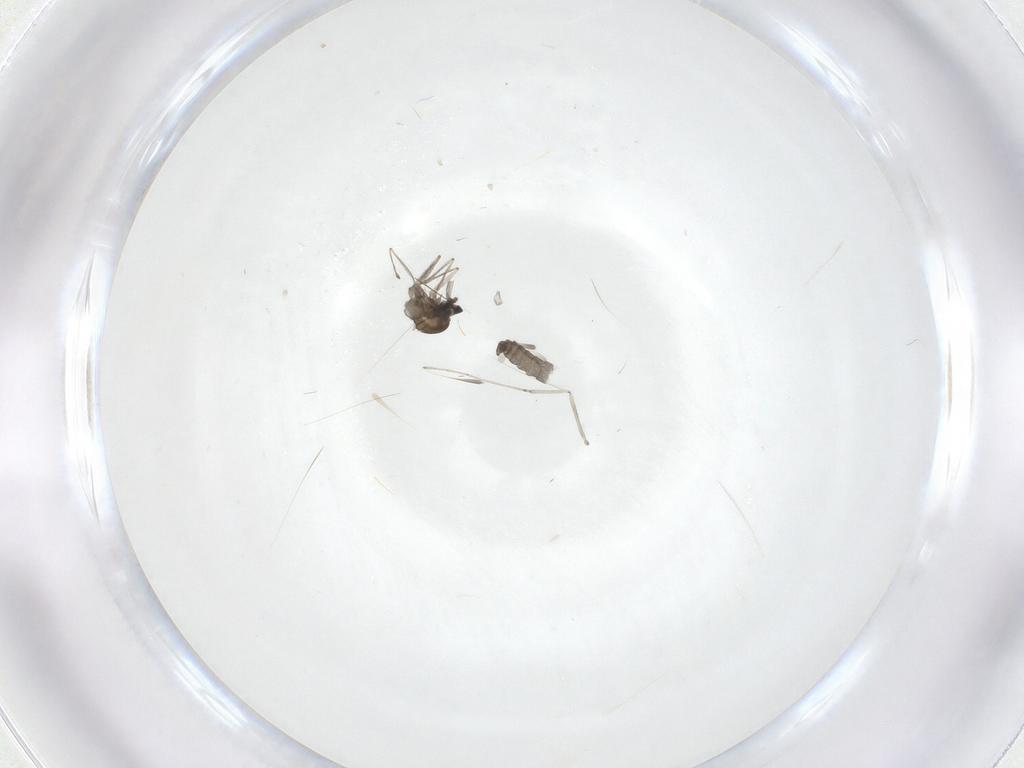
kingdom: Animalia
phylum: Arthropoda
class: Insecta
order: Diptera
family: Cecidomyiidae
